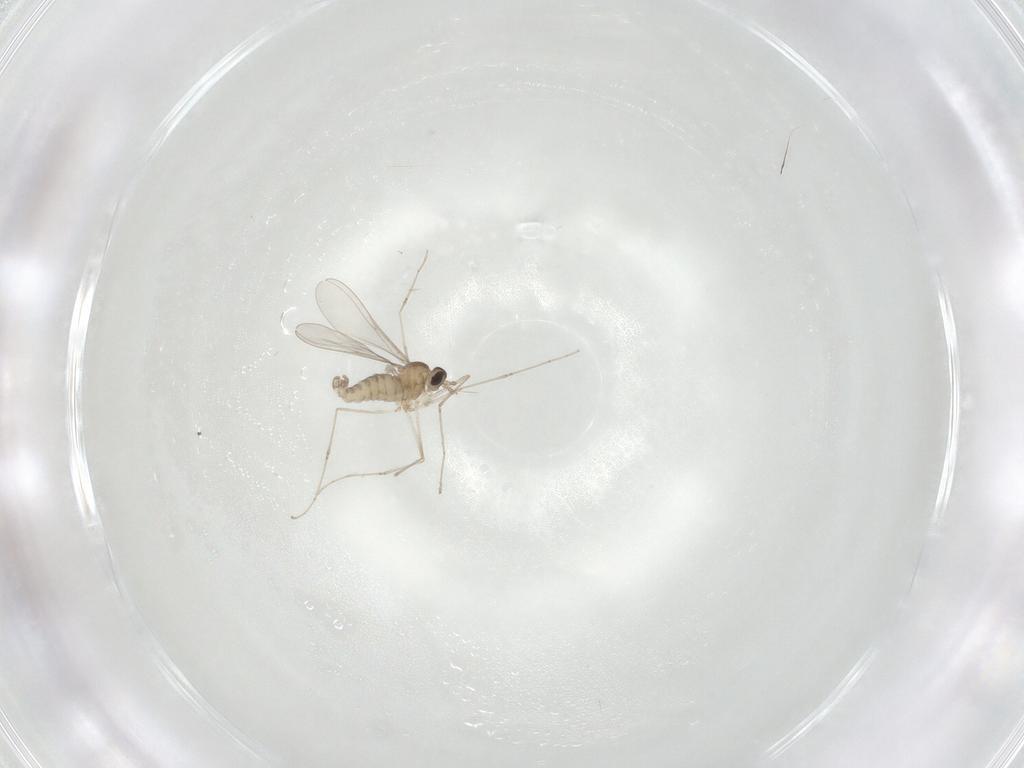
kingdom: Animalia
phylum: Arthropoda
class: Insecta
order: Diptera
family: Cecidomyiidae
